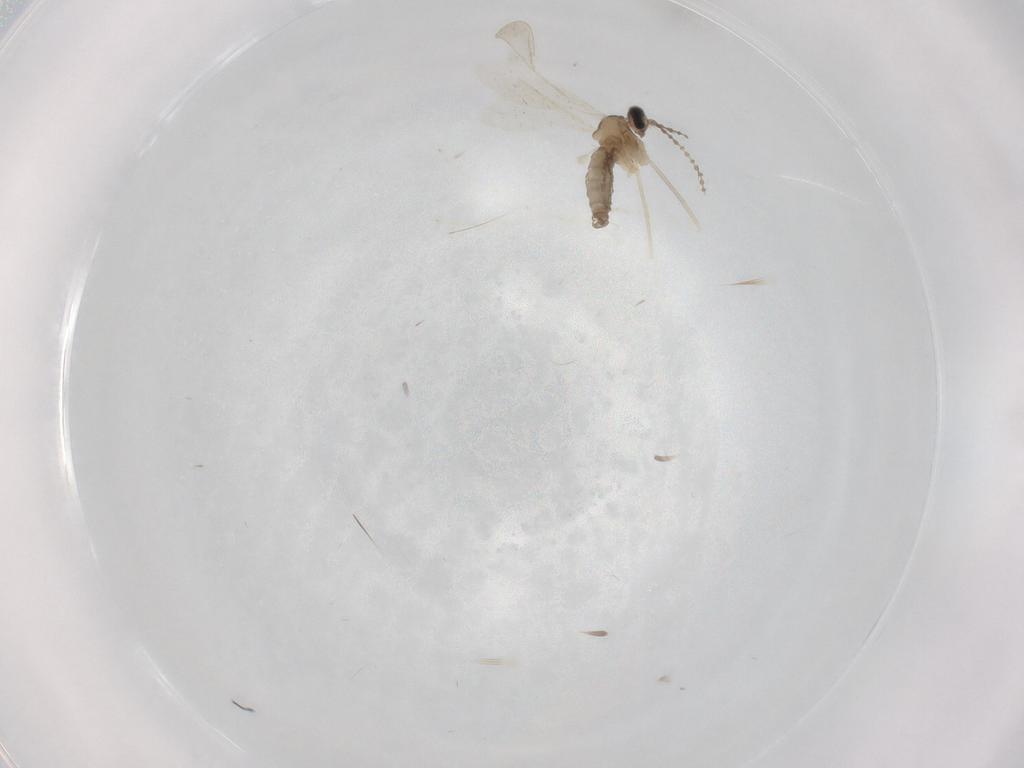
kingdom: Animalia
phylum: Arthropoda
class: Insecta
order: Diptera
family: Cecidomyiidae
